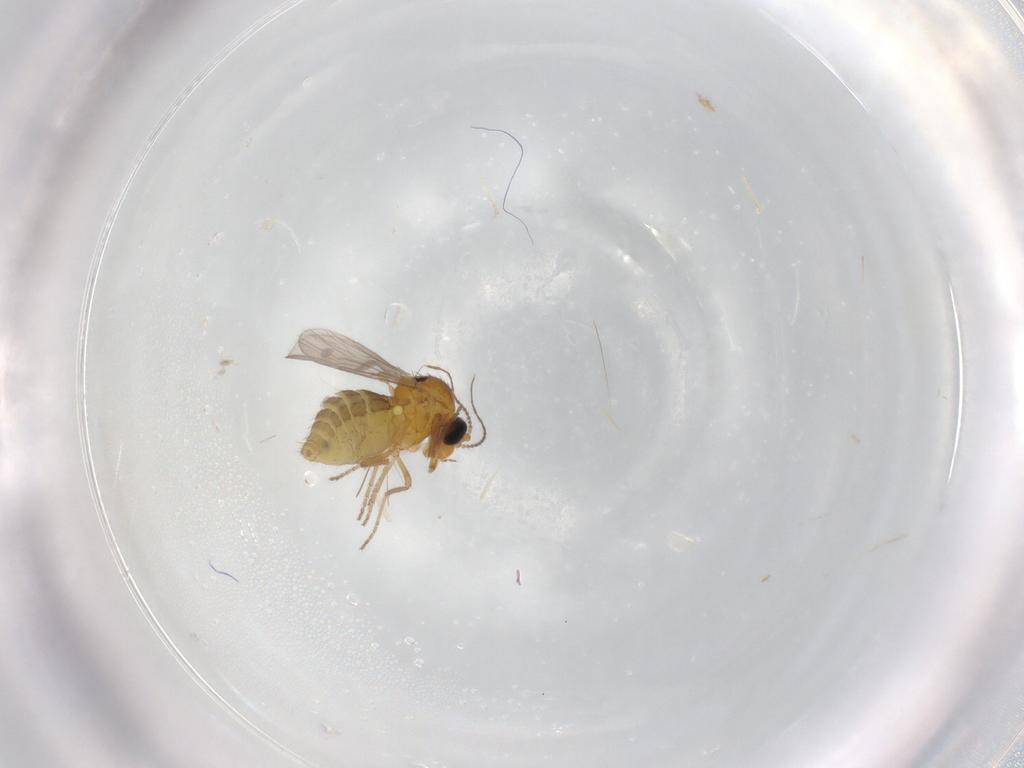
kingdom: Animalia
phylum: Arthropoda
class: Insecta
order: Diptera
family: Ceratopogonidae
